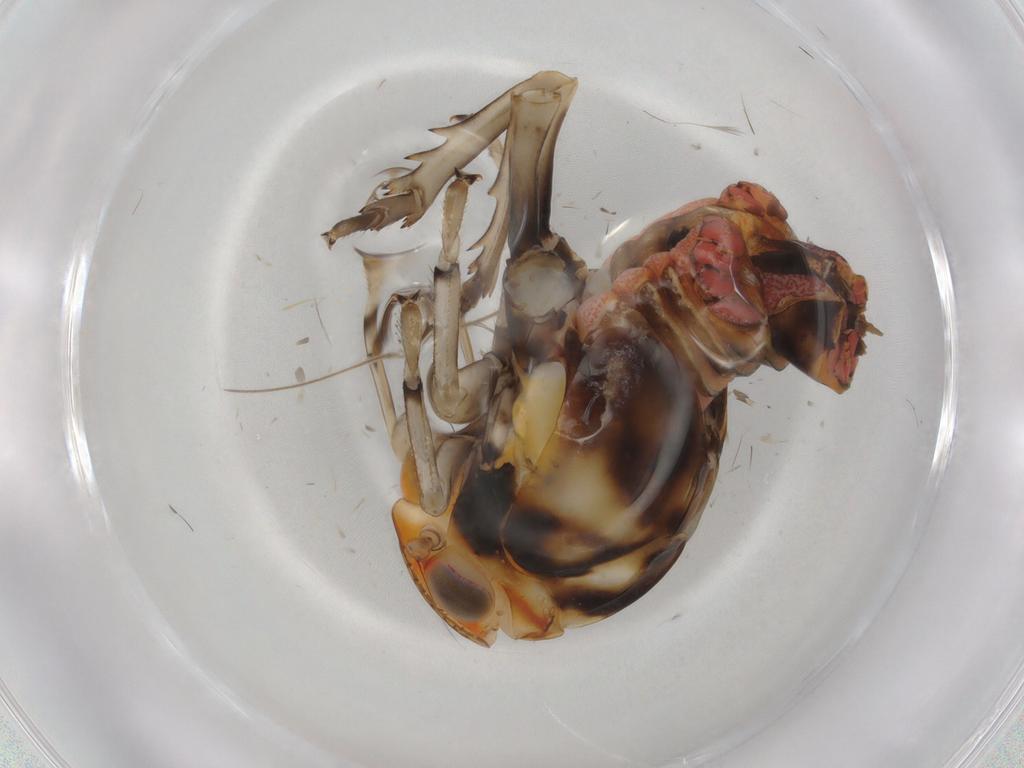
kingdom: Animalia
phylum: Arthropoda
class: Insecta
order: Hemiptera
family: Ricaniidae
